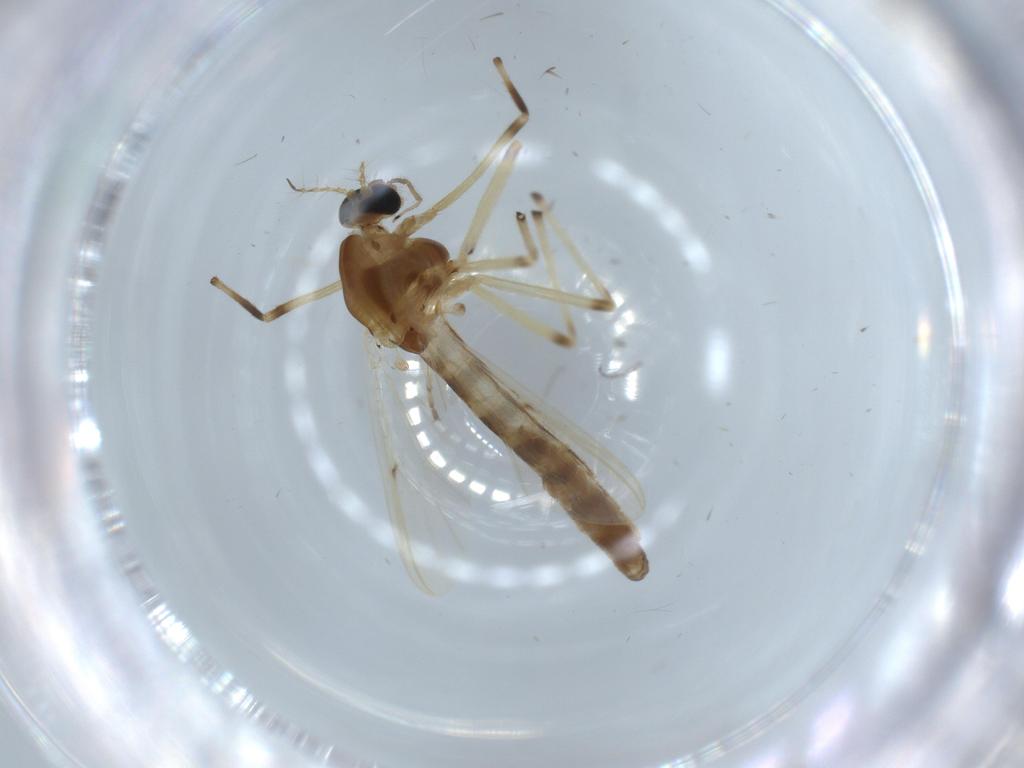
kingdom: Animalia
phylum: Arthropoda
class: Insecta
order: Diptera
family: Chironomidae
